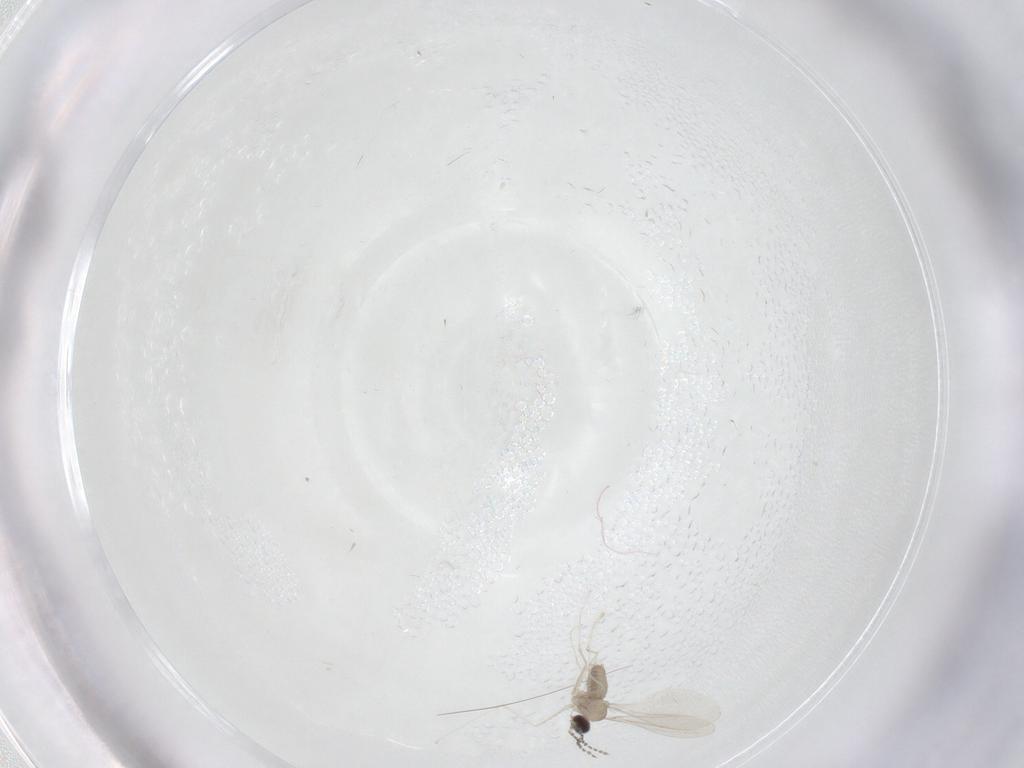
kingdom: Animalia
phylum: Arthropoda
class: Insecta
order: Diptera
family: Cecidomyiidae
